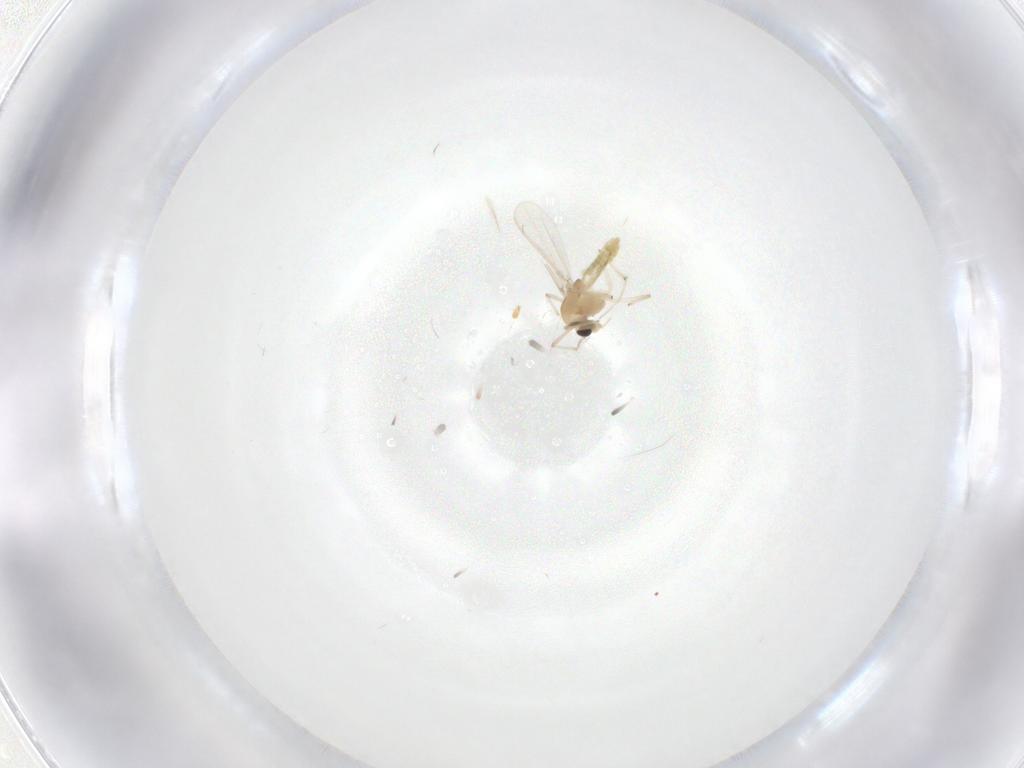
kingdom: Animalia
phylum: Arthropoda
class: Insecta
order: Diptera
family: Chironomidae
